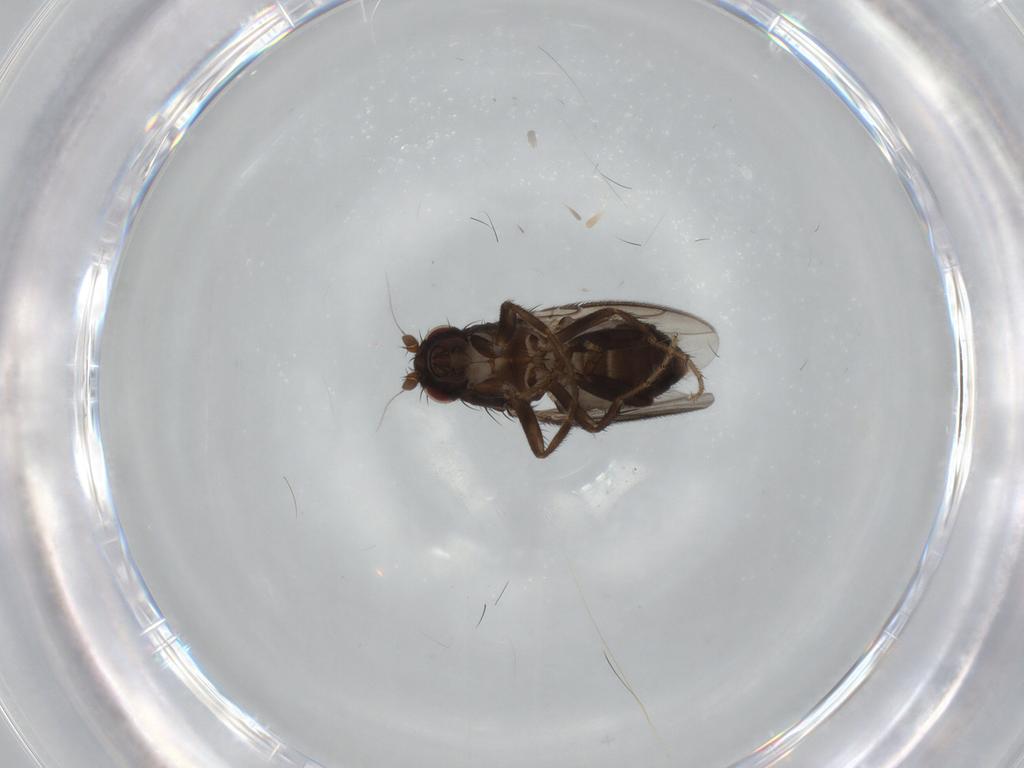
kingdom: Animalia
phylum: Arthropoda
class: Insecta
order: Diptera
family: Sphaeroceridae
